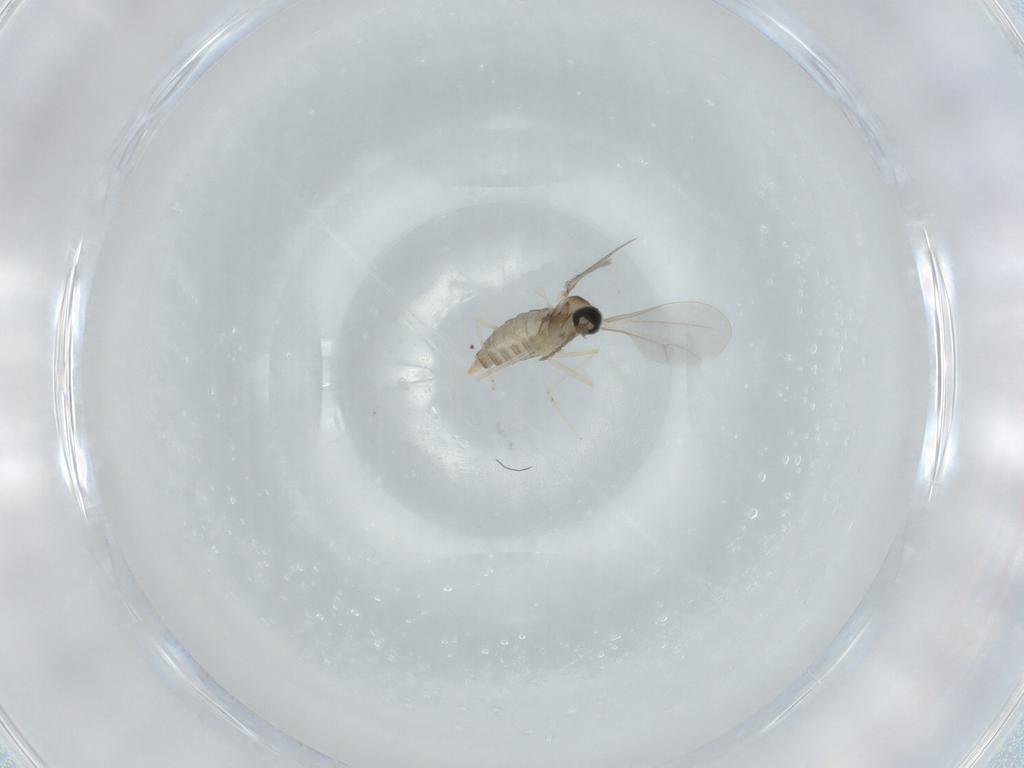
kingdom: Animalia
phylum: Arthropoda
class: Insecta
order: Diptera
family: Cecidomyiidae
